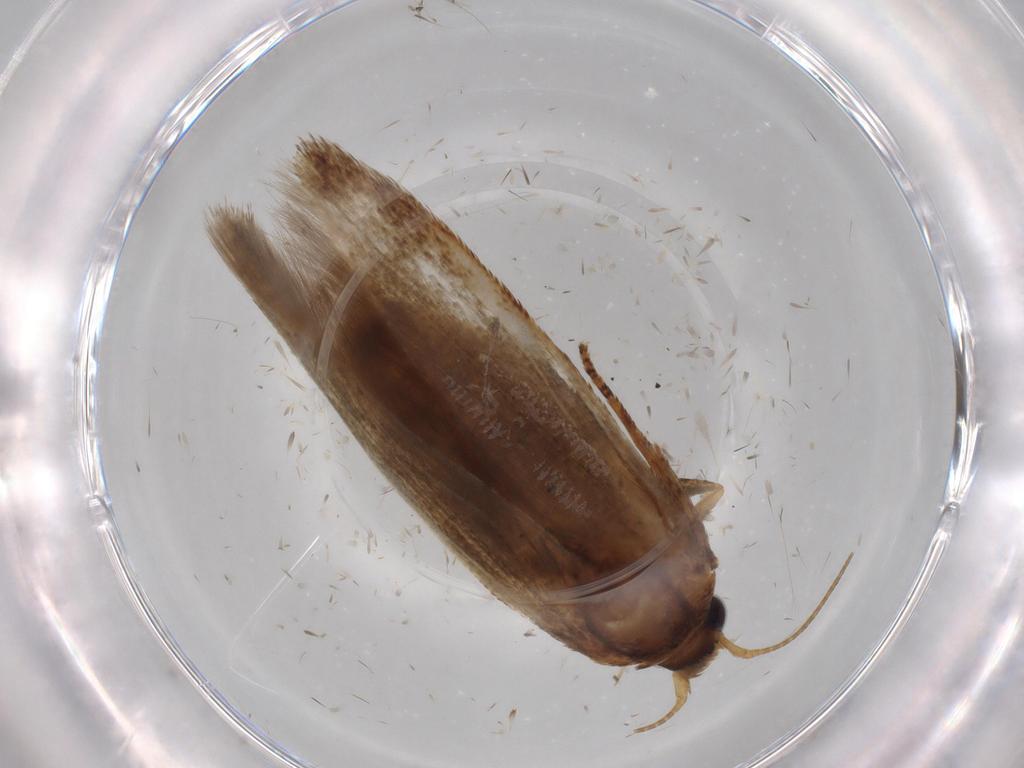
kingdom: Animalia
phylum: Arthropoda
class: Insecta
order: Lepidoptera
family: Blastobasidae
